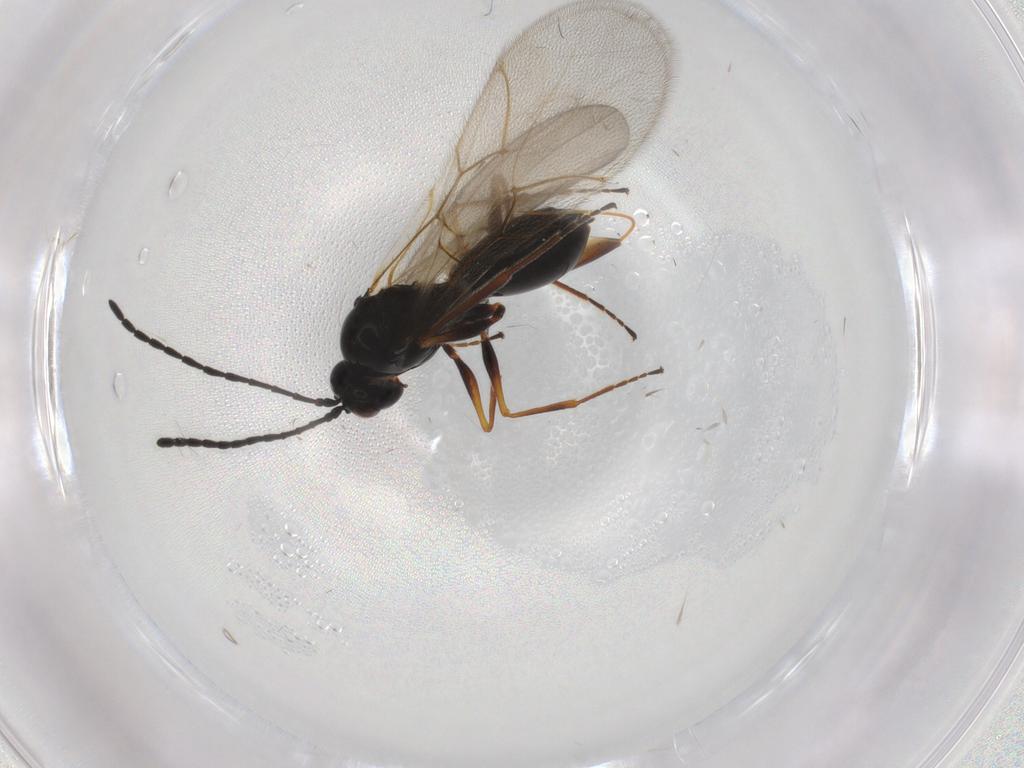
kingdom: Animalia
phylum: Arthropoda
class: Insecta
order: Hymenoptera
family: Figitidae
